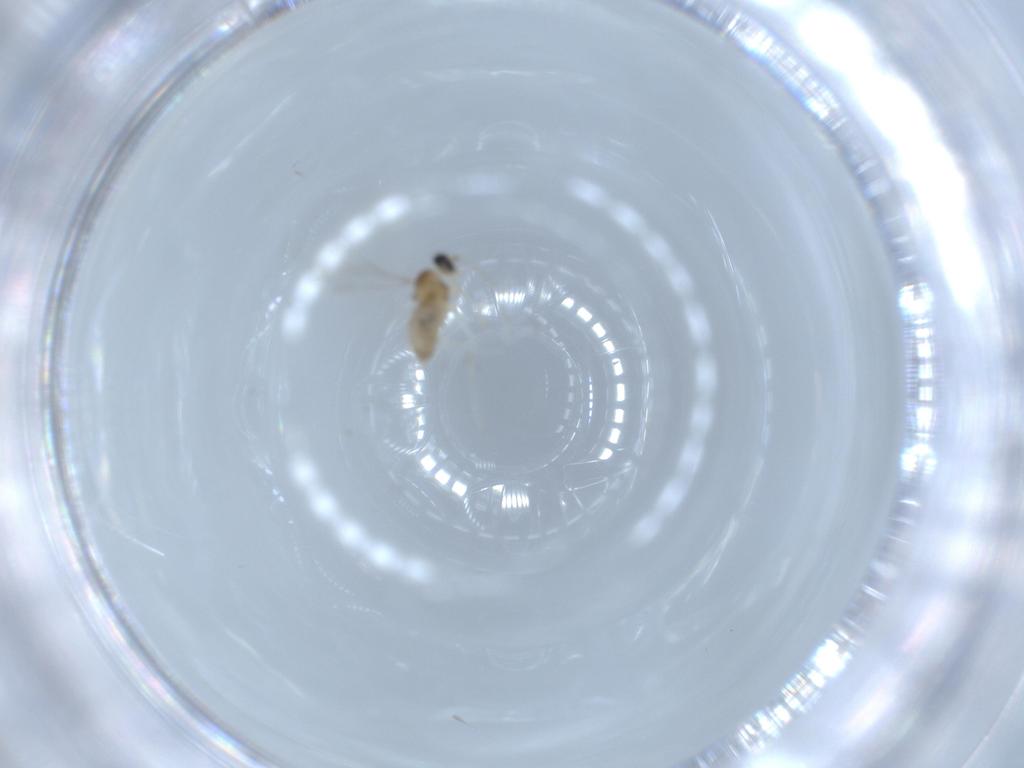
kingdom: Animalia
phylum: Arthropoda
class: Insecta
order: Diptera
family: Cecidomyiidae
